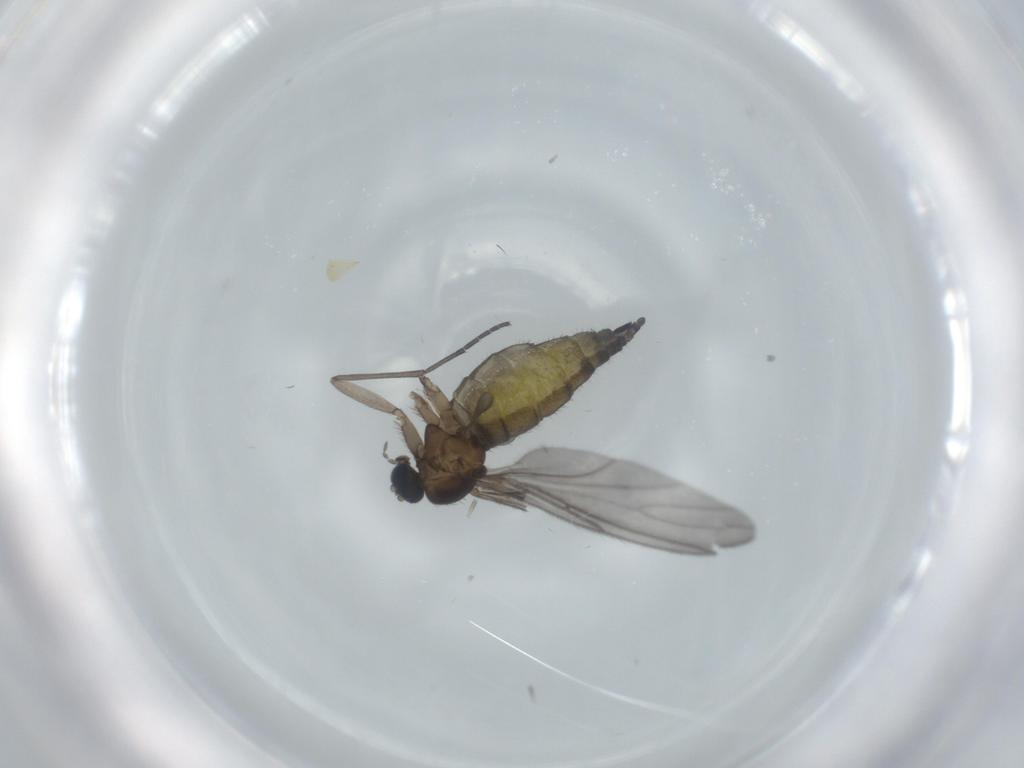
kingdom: Animalia
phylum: Arthropoda
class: Insecta
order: Diptera
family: Sciaridae
